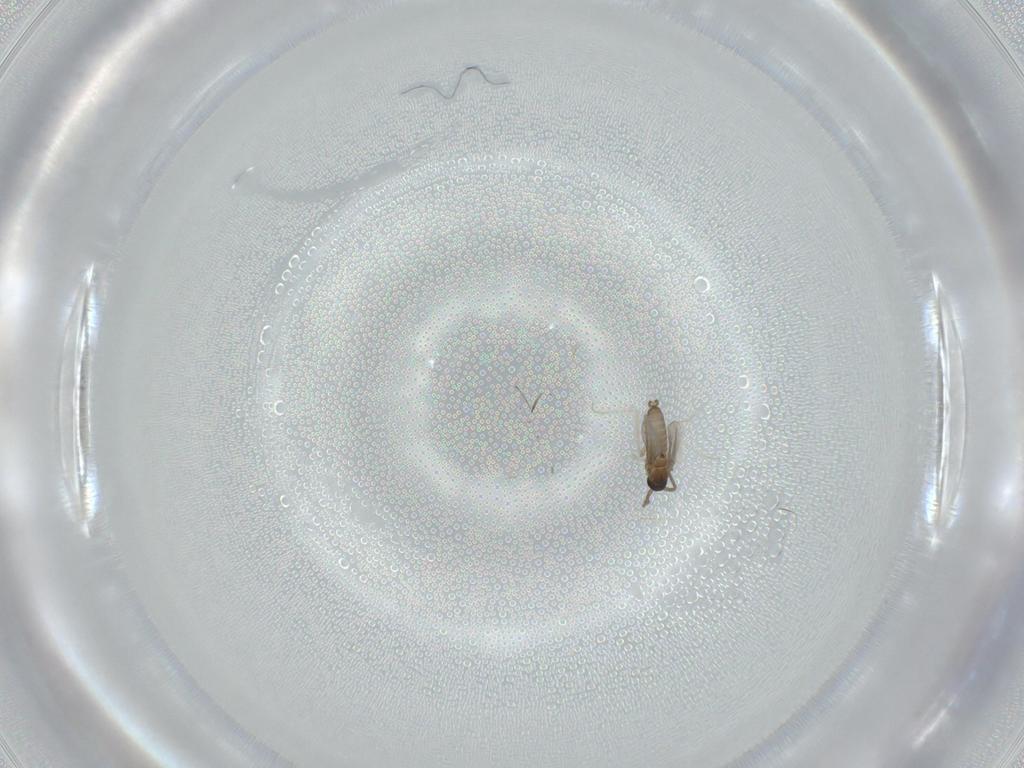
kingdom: Animalia
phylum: Arthropoda
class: Insecta
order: Diptera
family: Cecidomyiidae
